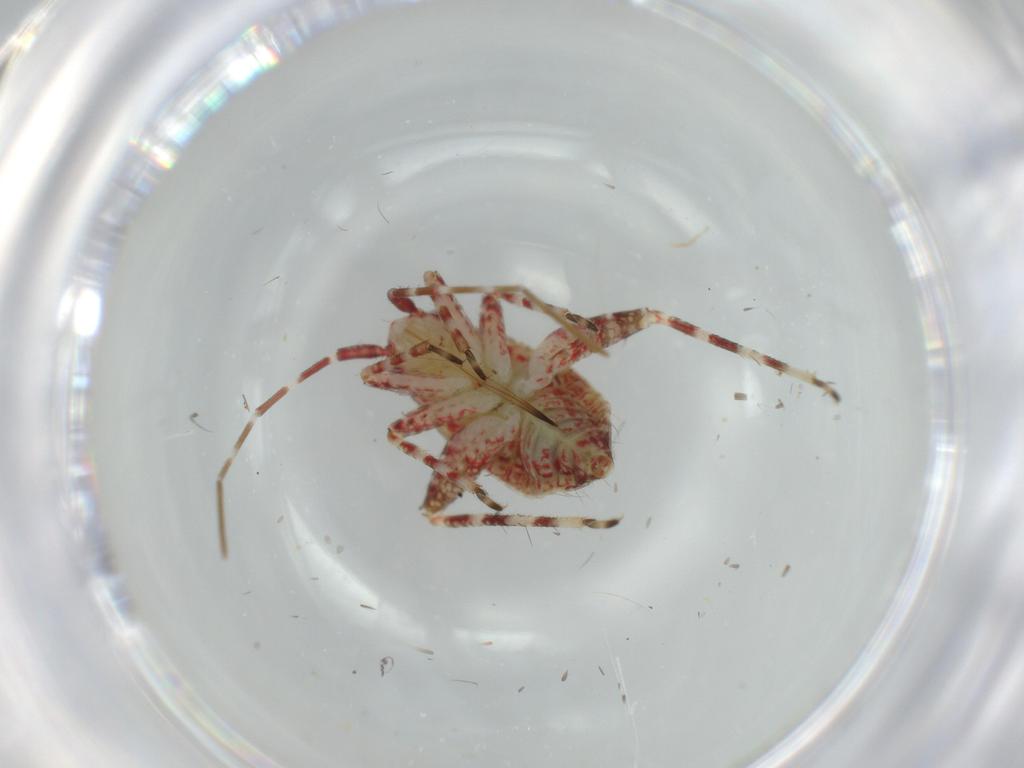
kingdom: Animalia
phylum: Arthropoda
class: Insecta
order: Hemiptera
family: Miridae
